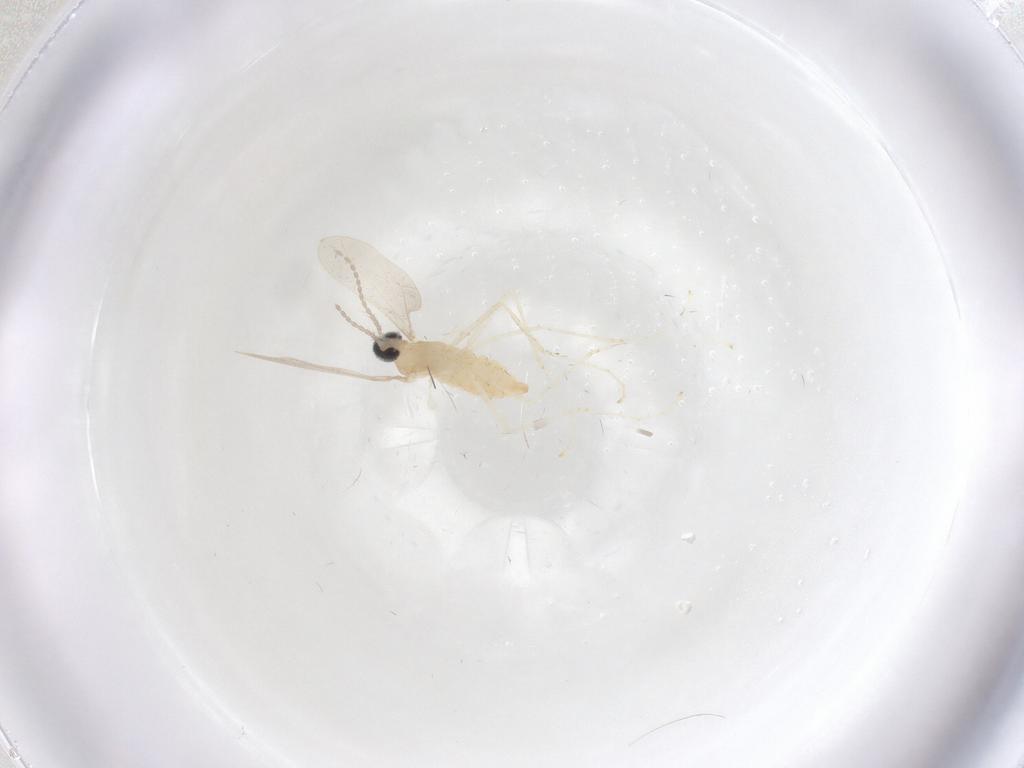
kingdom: Animalia
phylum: Arthropoda
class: Insecta
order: Diptera
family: Cecidomyiidae
